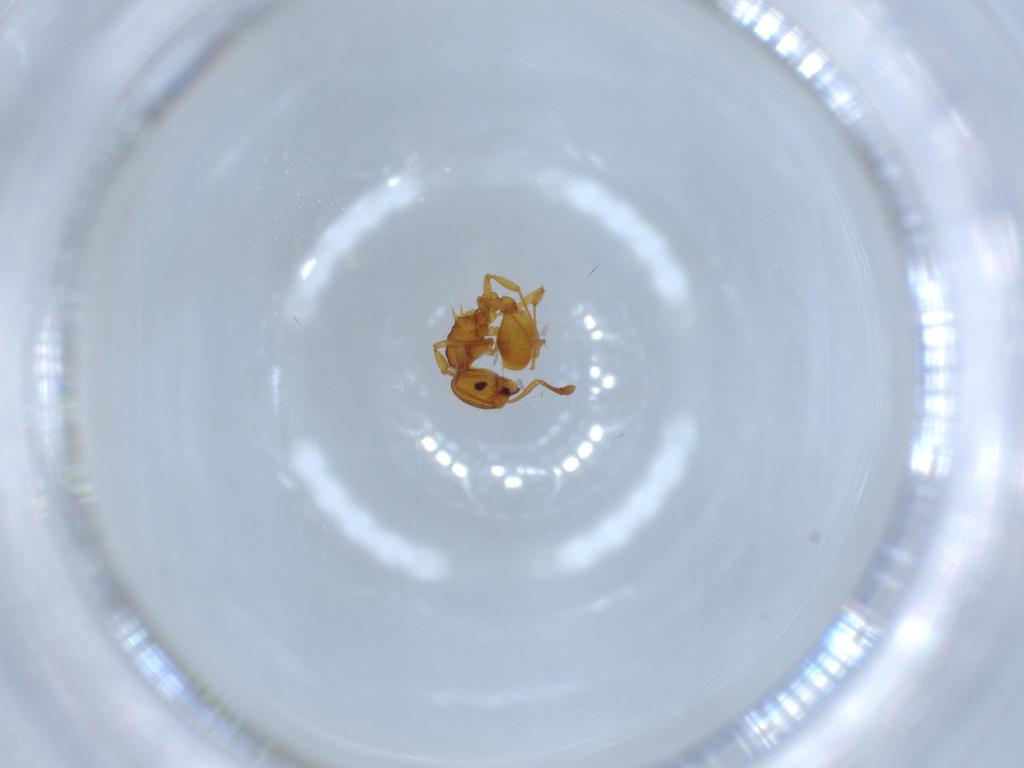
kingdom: Animalia
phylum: Arthropoda
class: Insecta
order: Hymenoptera
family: Formicidae
